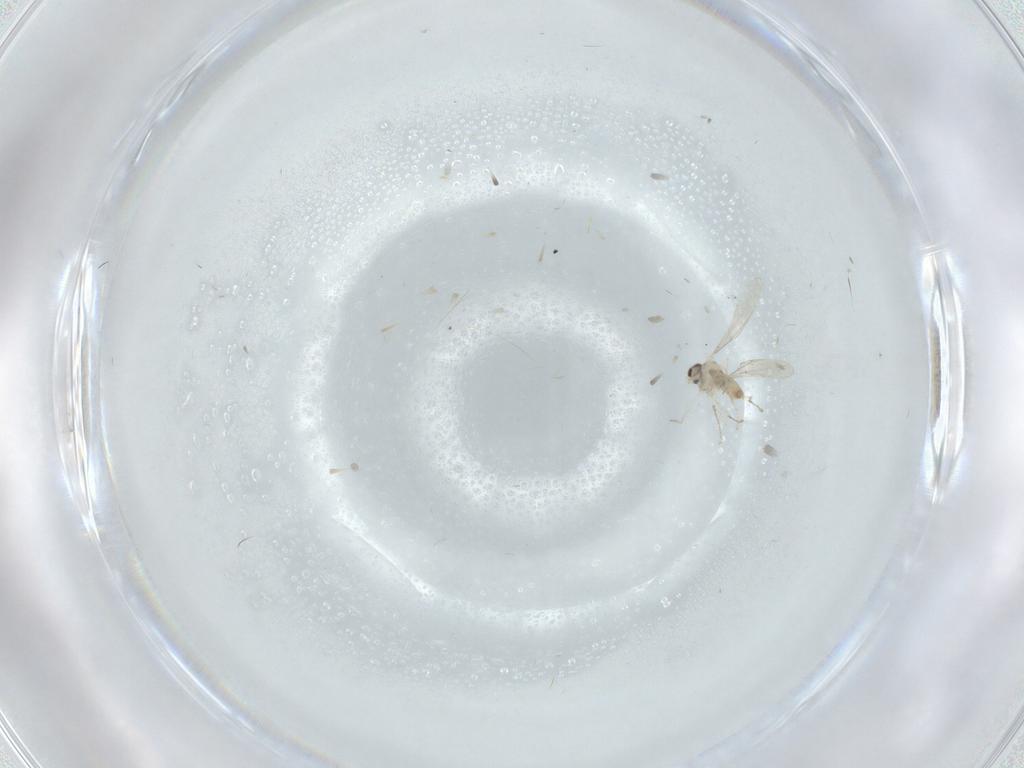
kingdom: Animalia
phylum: Arthropoda
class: Insecta
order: Diptera
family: Cecidomyiidae
